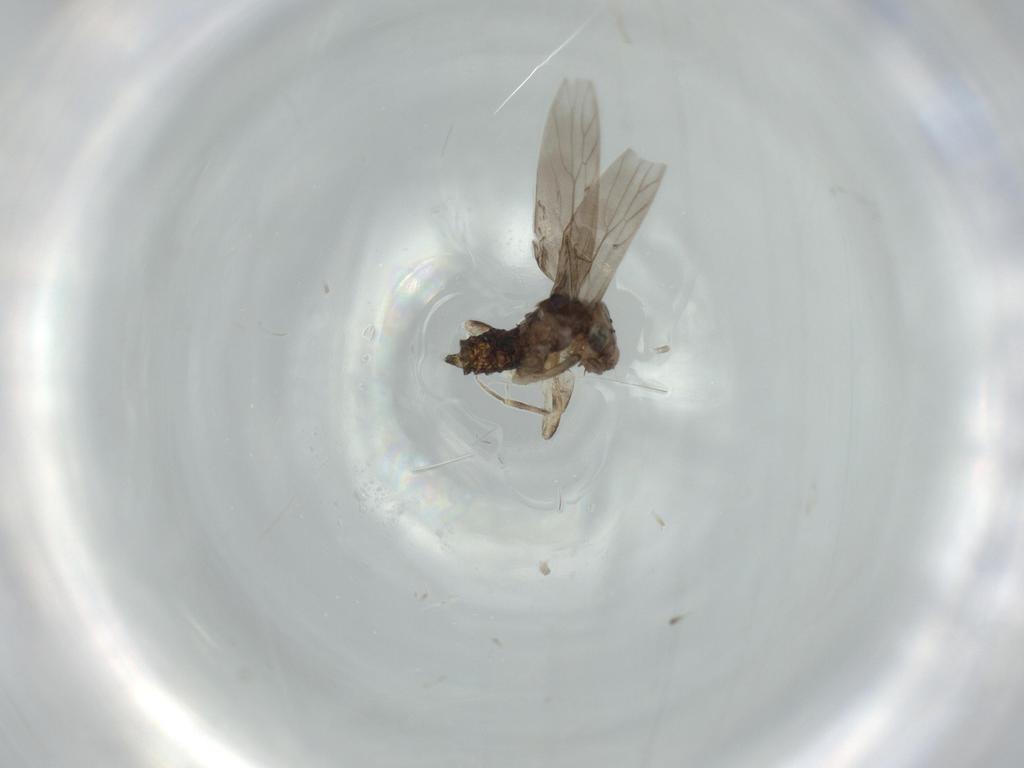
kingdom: Animalia
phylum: Arthropoda
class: Insecta
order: Psocodea
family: Lepidopsocidae
